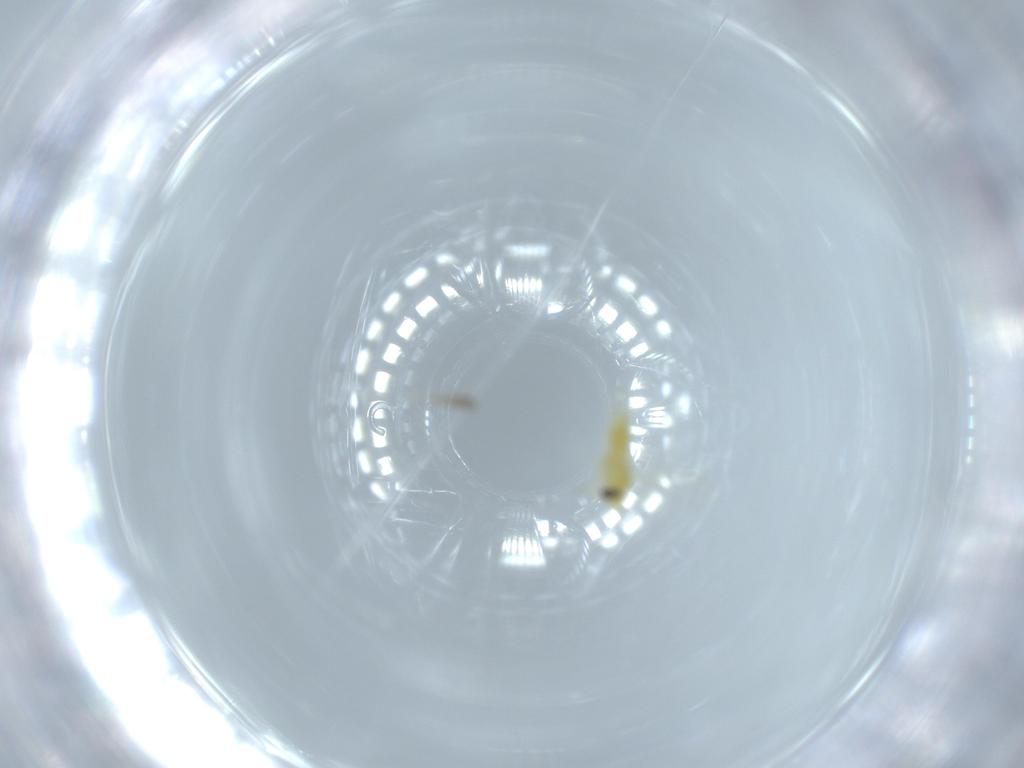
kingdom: Animalia
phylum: Arthropoda
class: Insecta
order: Hemiptera
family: Aleyrodidae
